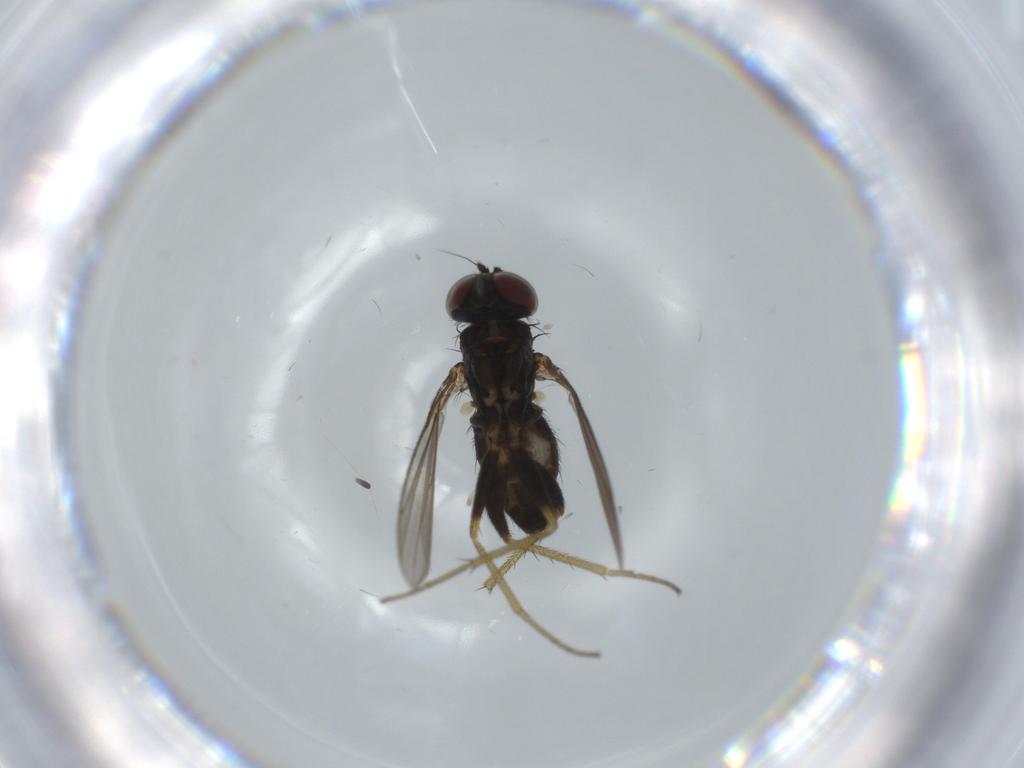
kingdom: Animalia
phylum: Arthropoda
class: Insecta
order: Diptera
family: Dolichopodidae
